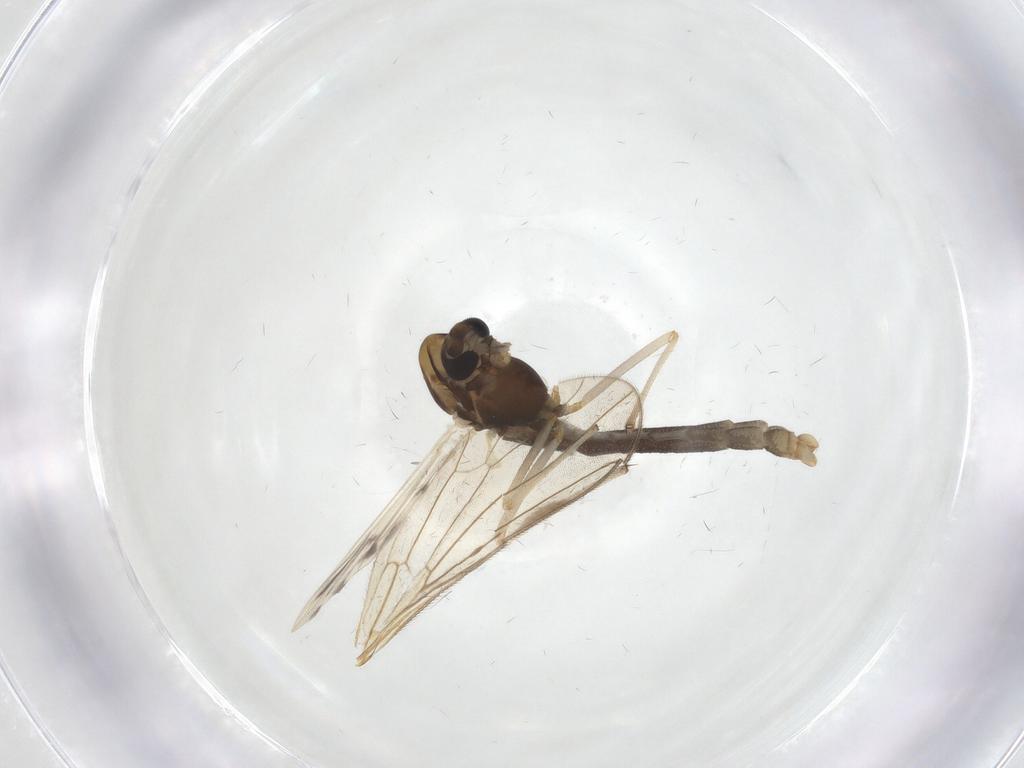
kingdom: Animalia
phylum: Arthropoda
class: Insecta
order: Diptera
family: Chironomidae
